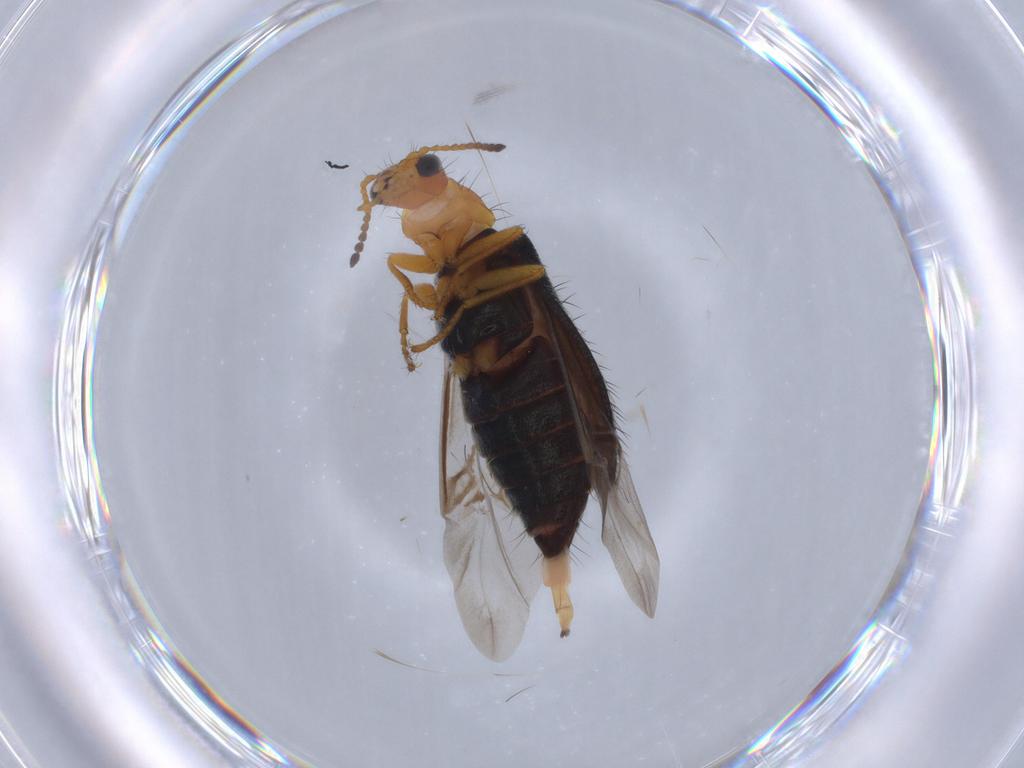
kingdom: Animalia
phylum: Arthropoda
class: Insecta
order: Coleoptera
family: Melyridae
